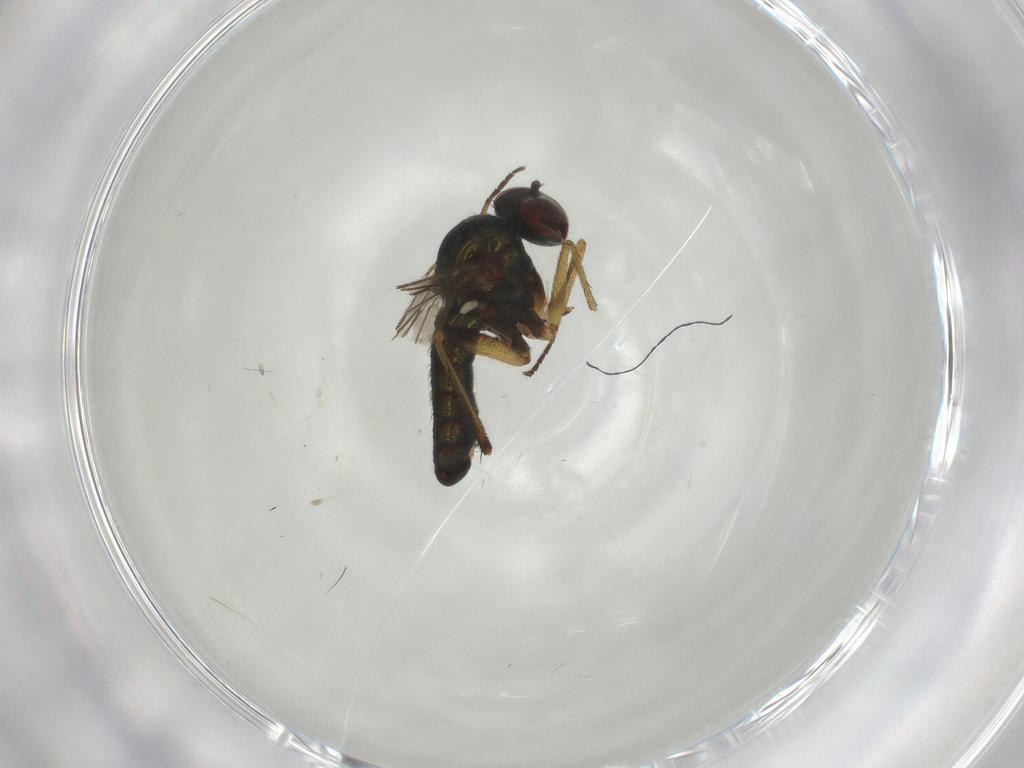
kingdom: Animalia
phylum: Arthropoda
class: Insecta
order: Diptera
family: Dolichopodidae
